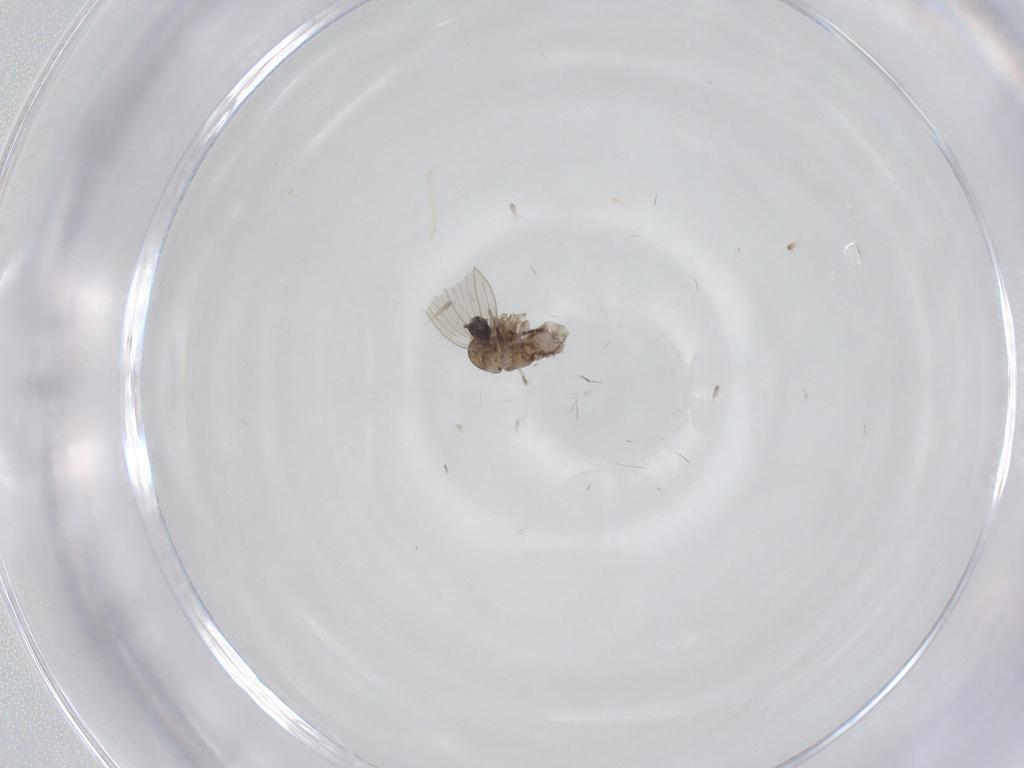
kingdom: Animalia
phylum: Arthropoda
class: Insecta
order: Diptera
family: Psychodidae
